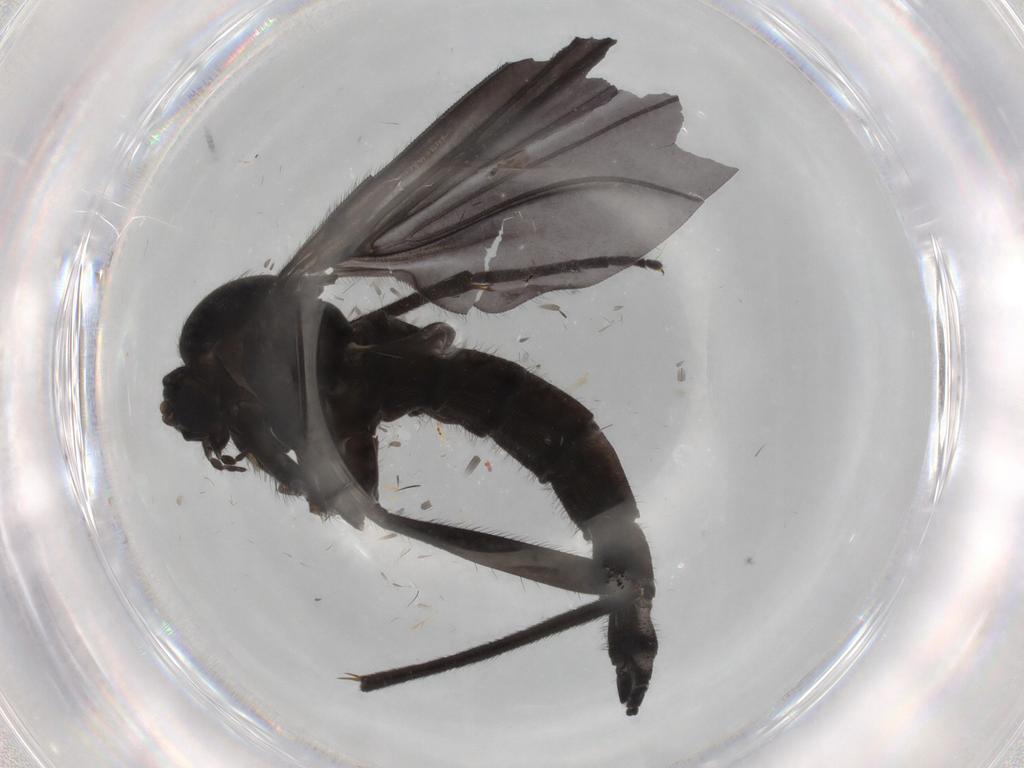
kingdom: Animalia
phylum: Arthropoda
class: Insecta
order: Diptera
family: Sciaridae
